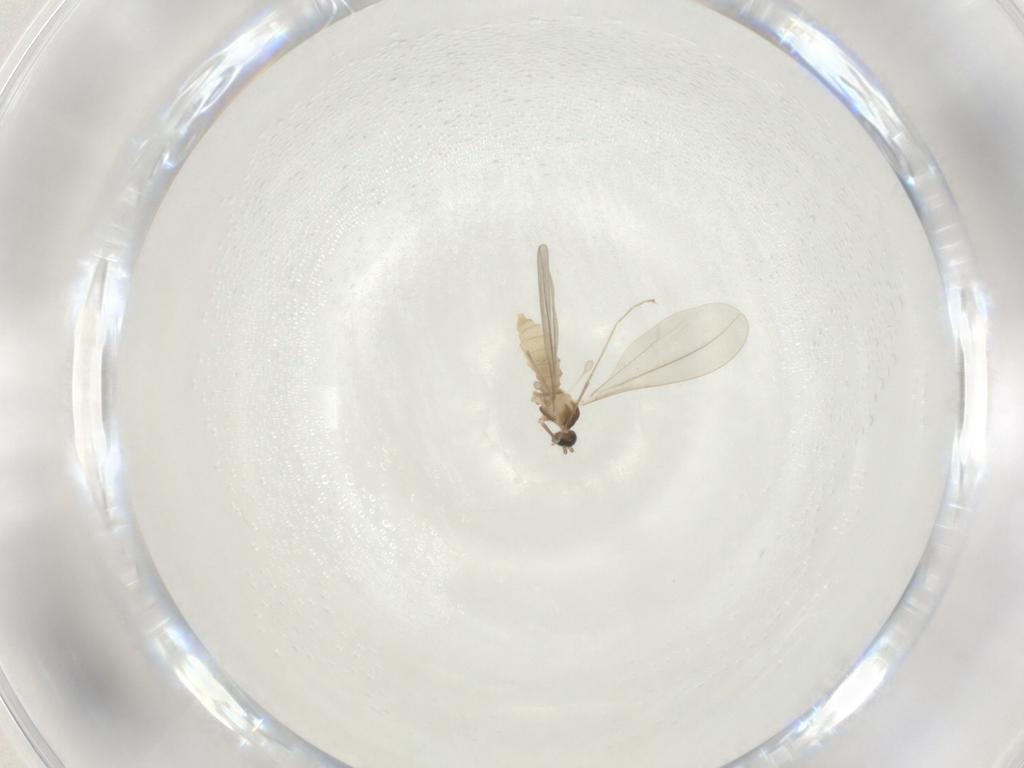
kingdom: Animalia
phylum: Arthropoda
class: Insecta
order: Diptera
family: Cecidomyiidae
